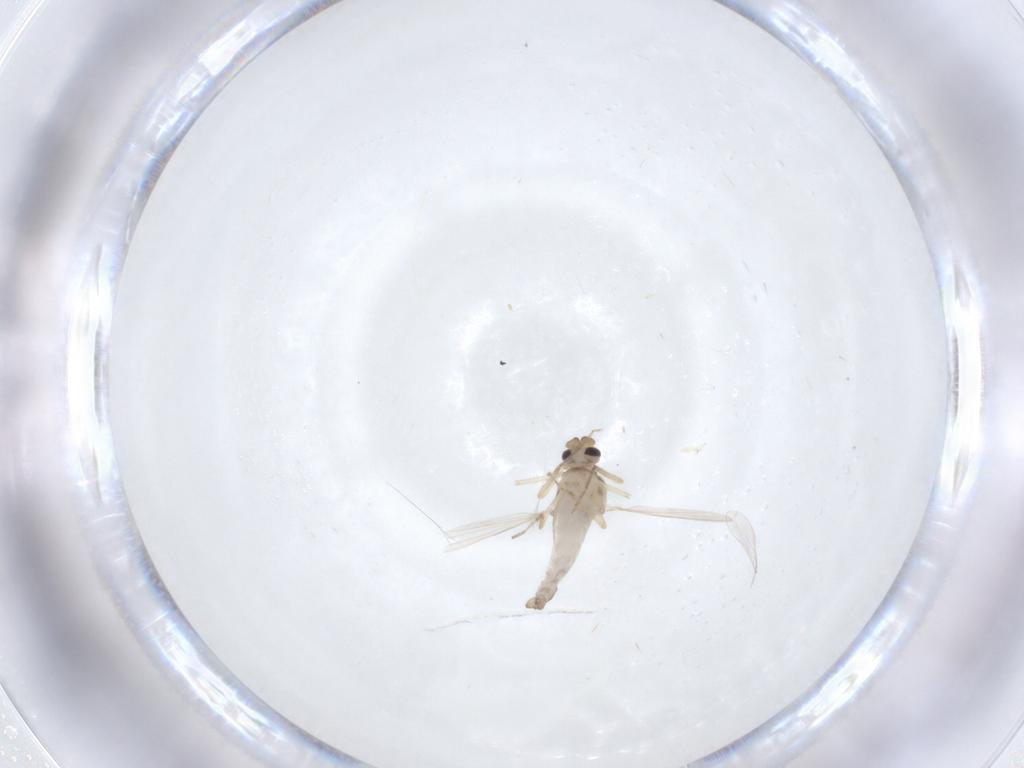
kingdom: Animalia
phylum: Arthropoda
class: Insecta
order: Diptera
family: Ceratopogonidae
